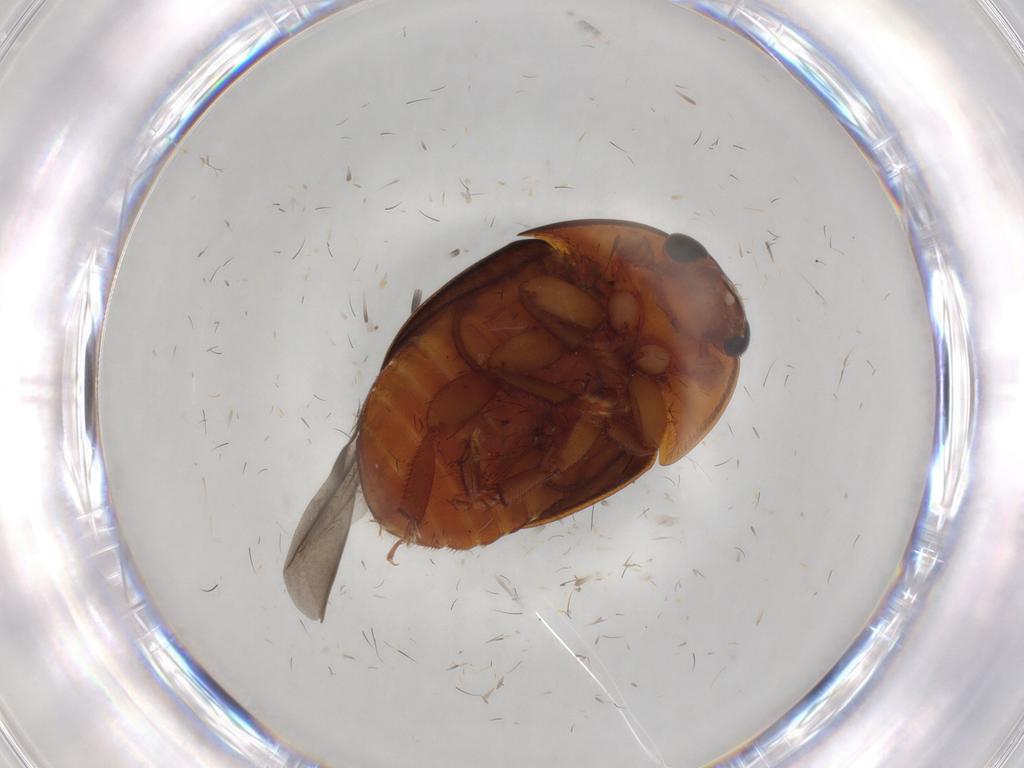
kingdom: Animalia
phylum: Arthropoda
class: Insecta
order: Coleoptera
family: Nitidulidae
